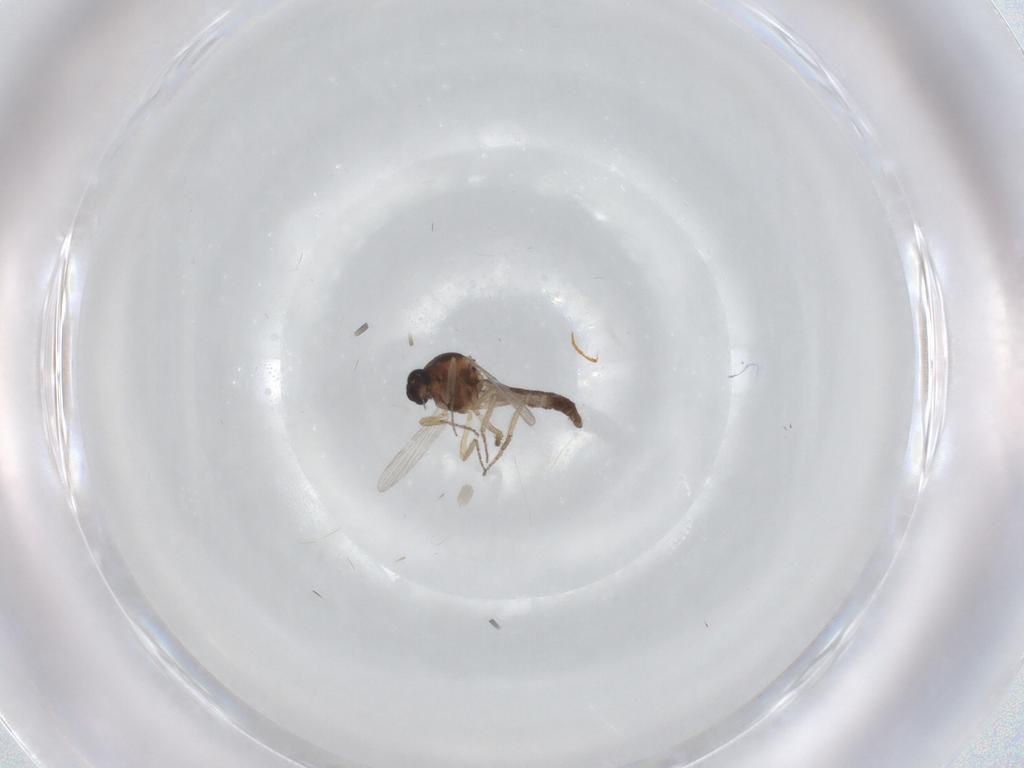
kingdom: Animalia
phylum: Arthropoda
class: Insecta
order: Diptera
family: Ceratopogonidae
